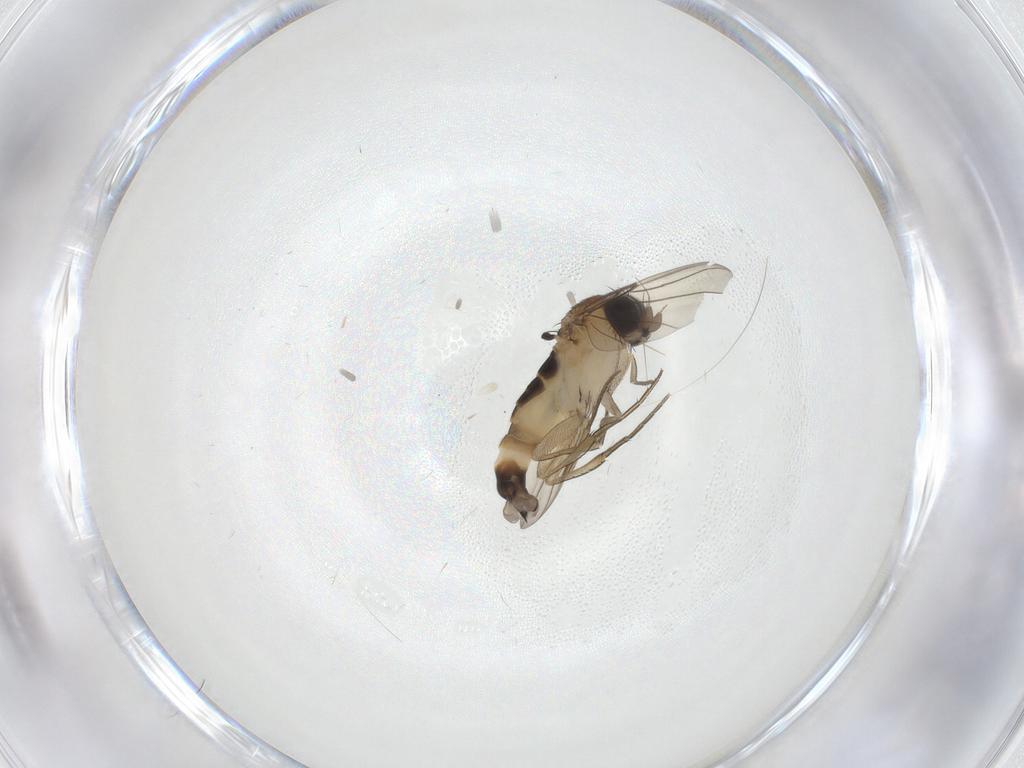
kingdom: Animalia
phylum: Arthropoda
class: Insecta
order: Diptera
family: Phoridae
